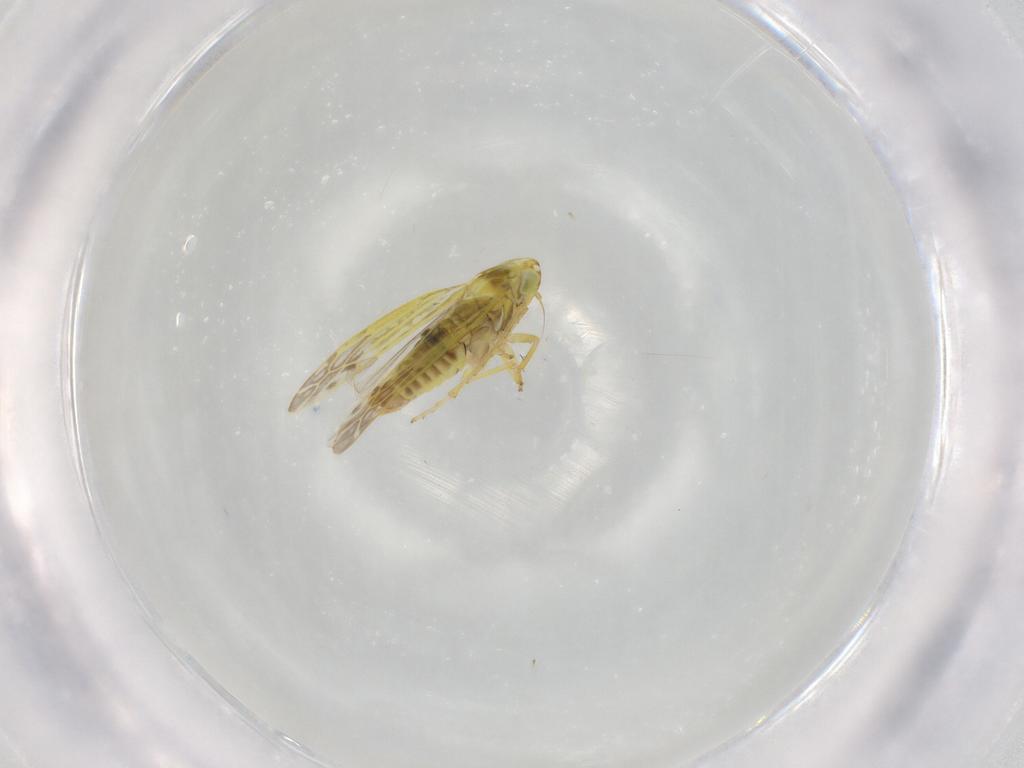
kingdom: Animalia
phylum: Arthropoda
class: Insecta
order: Hemiptera
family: Cicadellidae
